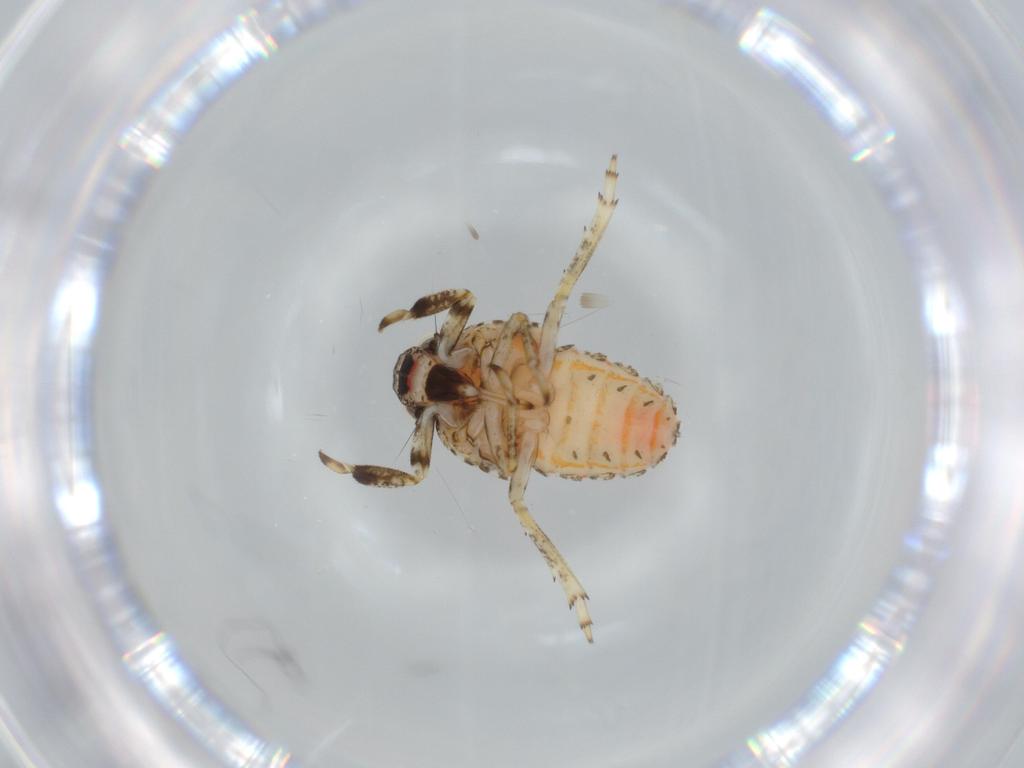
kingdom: Animalia
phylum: Arthropoda
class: Insecta
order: Hemiptera
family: Issidae
